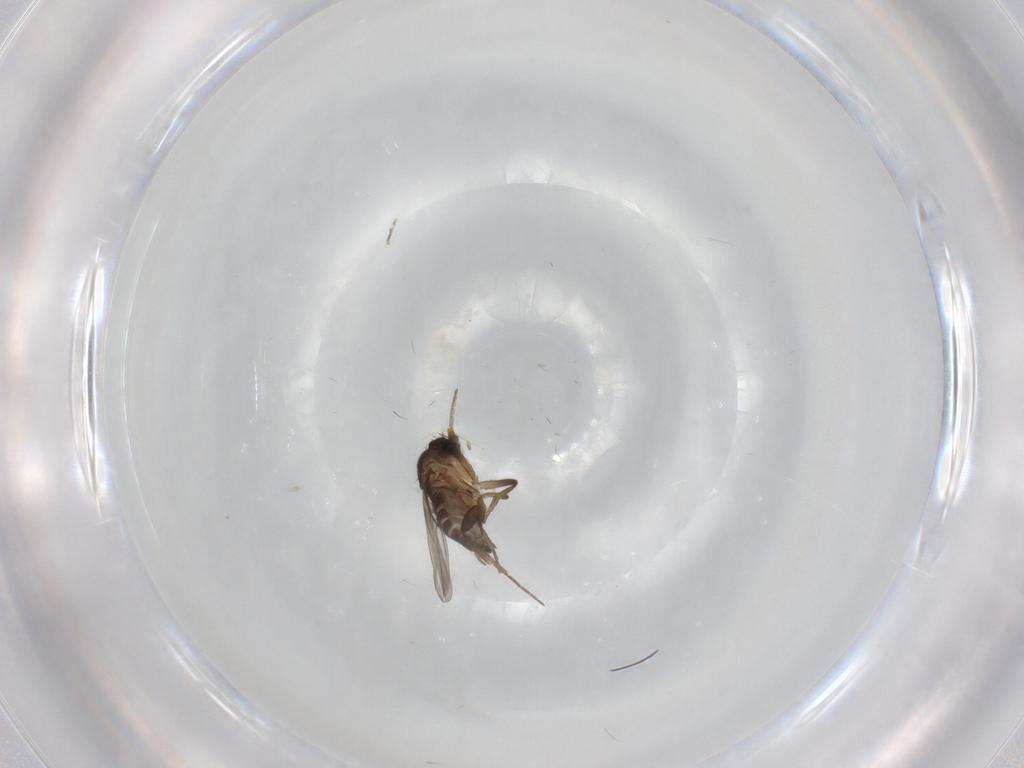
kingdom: Animalia
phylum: Arthropoda
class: Insecta
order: Diptera
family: Phoridae
